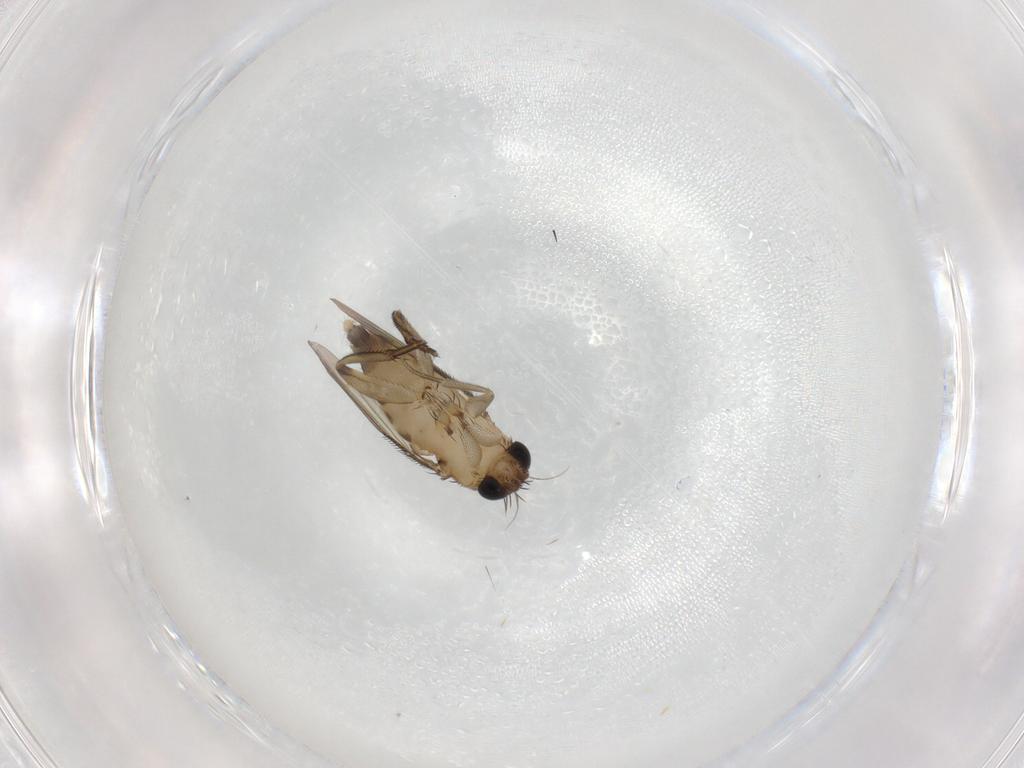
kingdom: Animalia
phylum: Arthropoda
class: Insecta
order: Diptera
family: Phoridae
